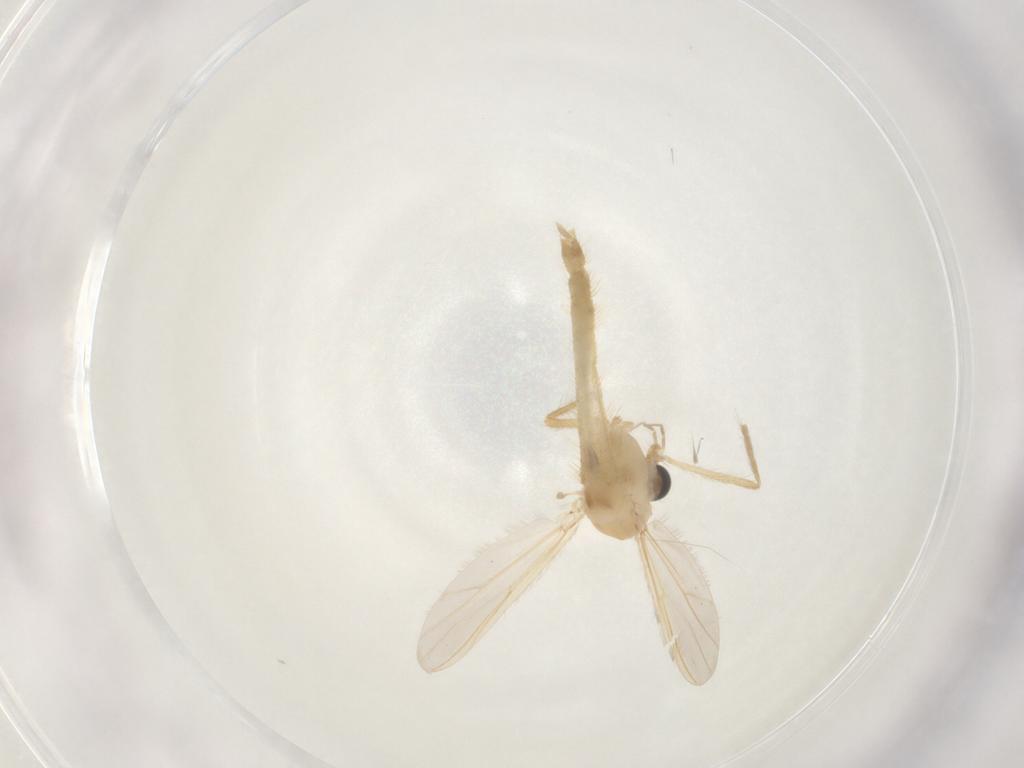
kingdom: Animalia
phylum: Arthropoda
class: Insecta
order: Diptera
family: Chironomidae
